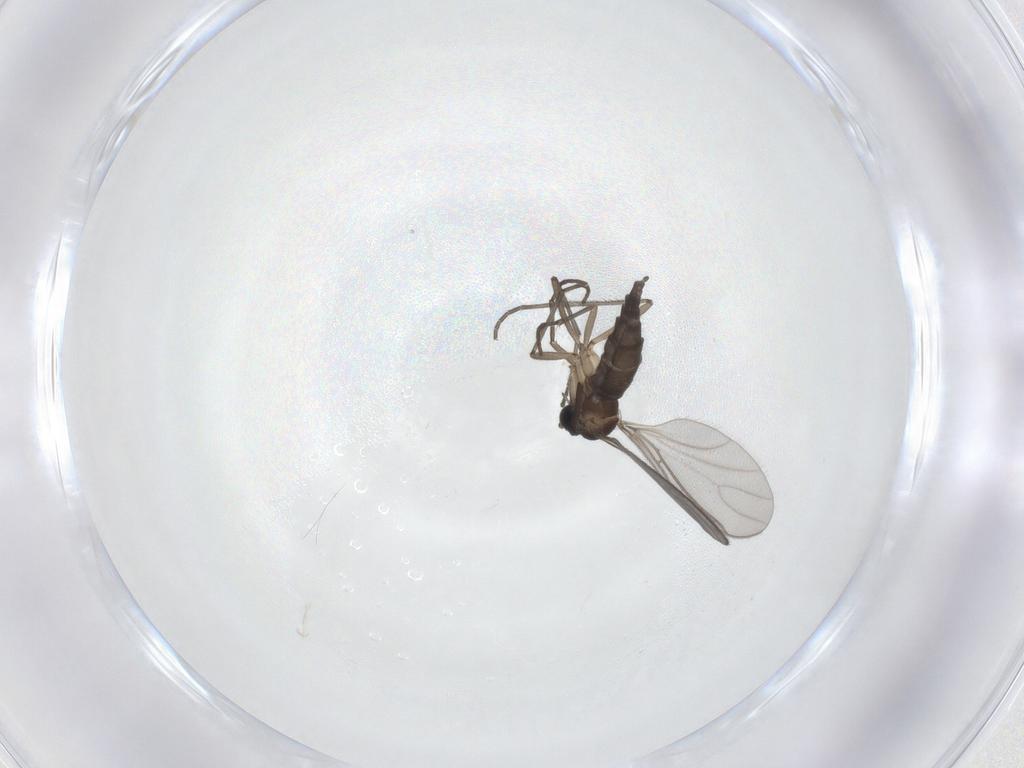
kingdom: Animalia
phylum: Arthropoda
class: Insecta
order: Diptera
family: Sciaridae
